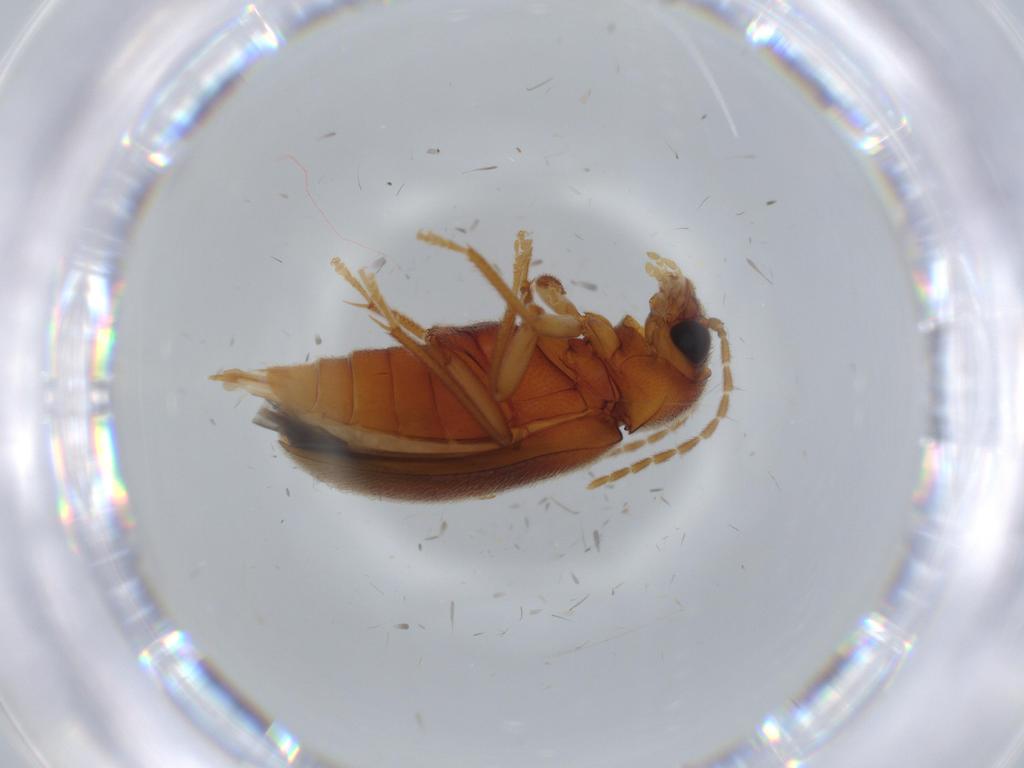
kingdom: Animalia
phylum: Arthropoda
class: Insecta
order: Coleoptera
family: Ptilodactylidae
